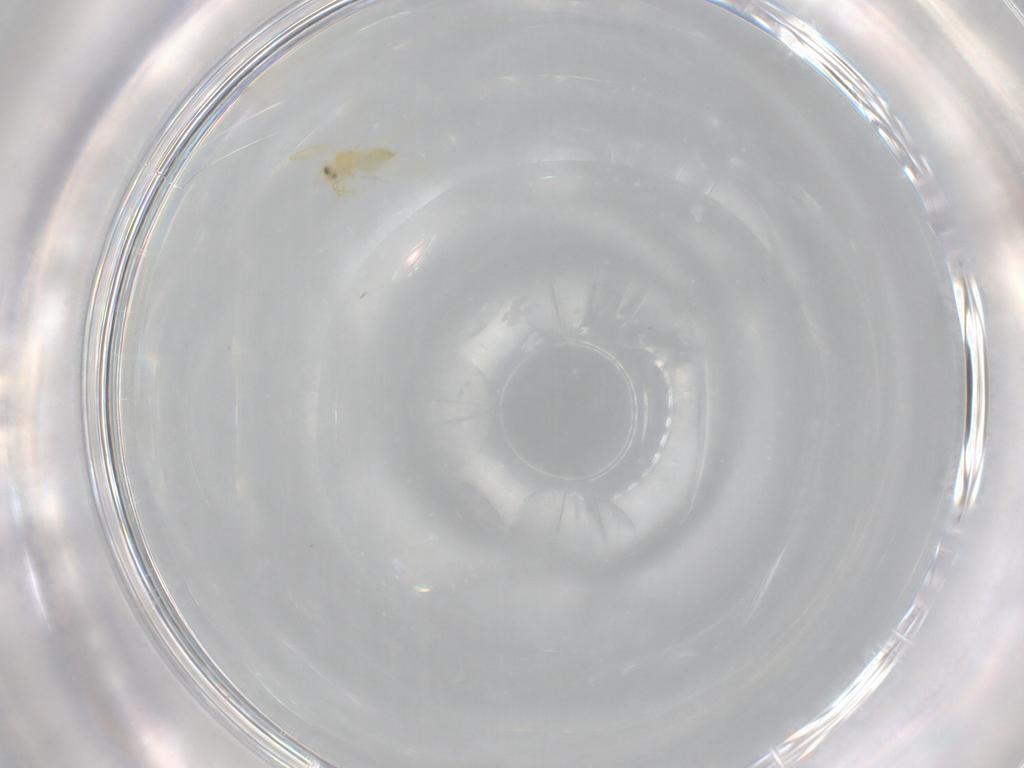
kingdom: Animalia
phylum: Arthropoda
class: Insecta
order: Hemiptera
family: Aleyrodidae
